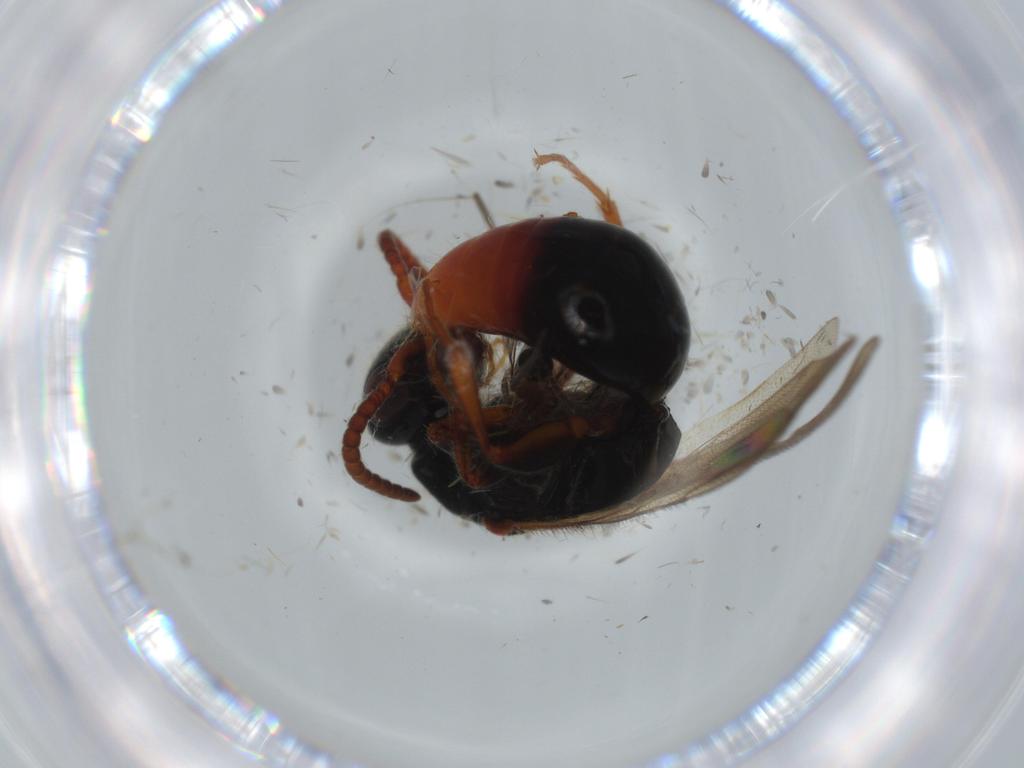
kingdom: Animalia
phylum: Arthropoda
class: Insecta
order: Hymenoptera
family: Bethylidae
